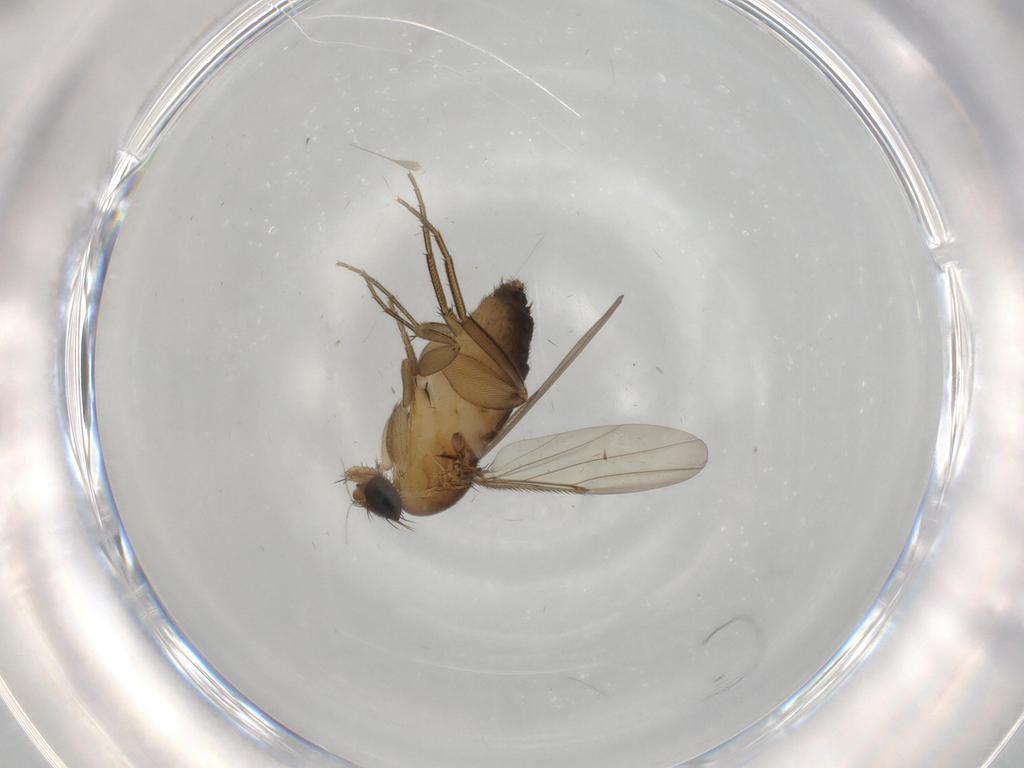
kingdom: Animalia
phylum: Arthropoda
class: Insecta
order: Diptera
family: Phoridae
